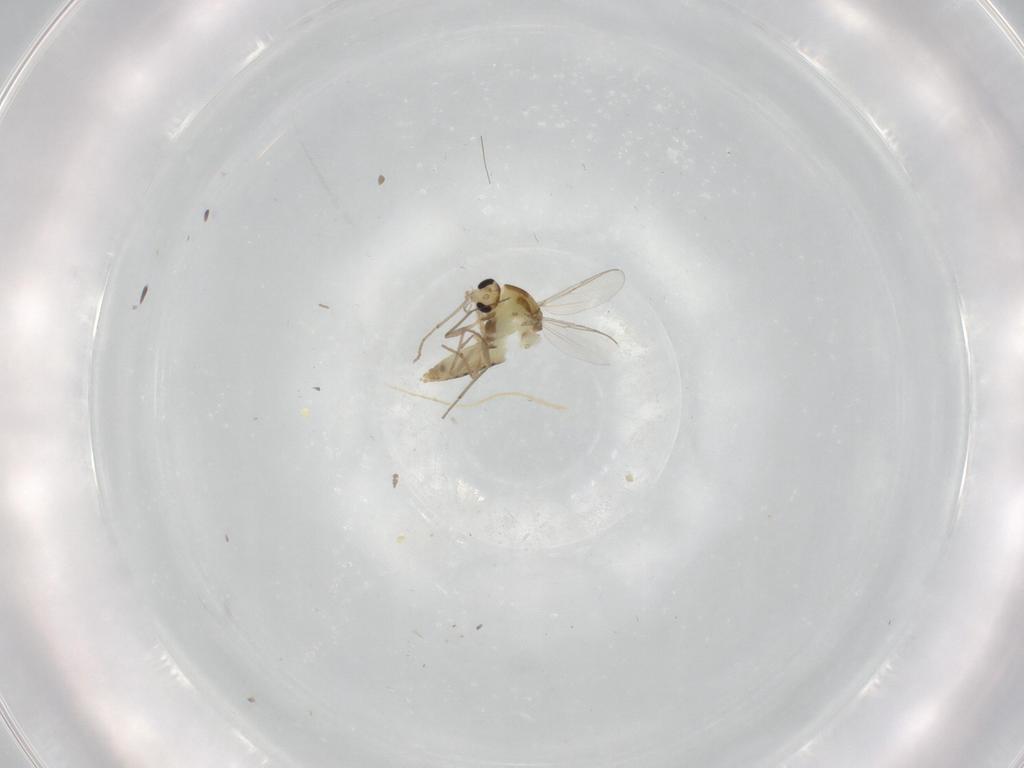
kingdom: Animalia
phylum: Arthropoda
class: Insecta
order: Diptera
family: Chironomidae
